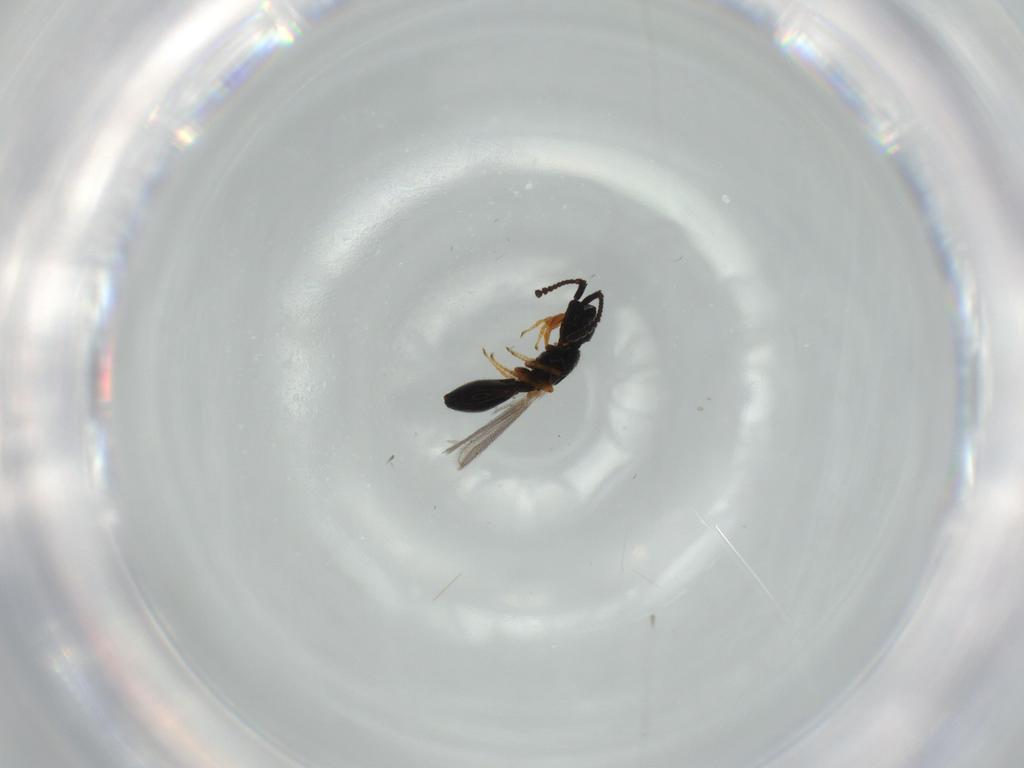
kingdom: Animalia
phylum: Arthropoda
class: Insecta
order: Hymenoptera
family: Diapriidae
